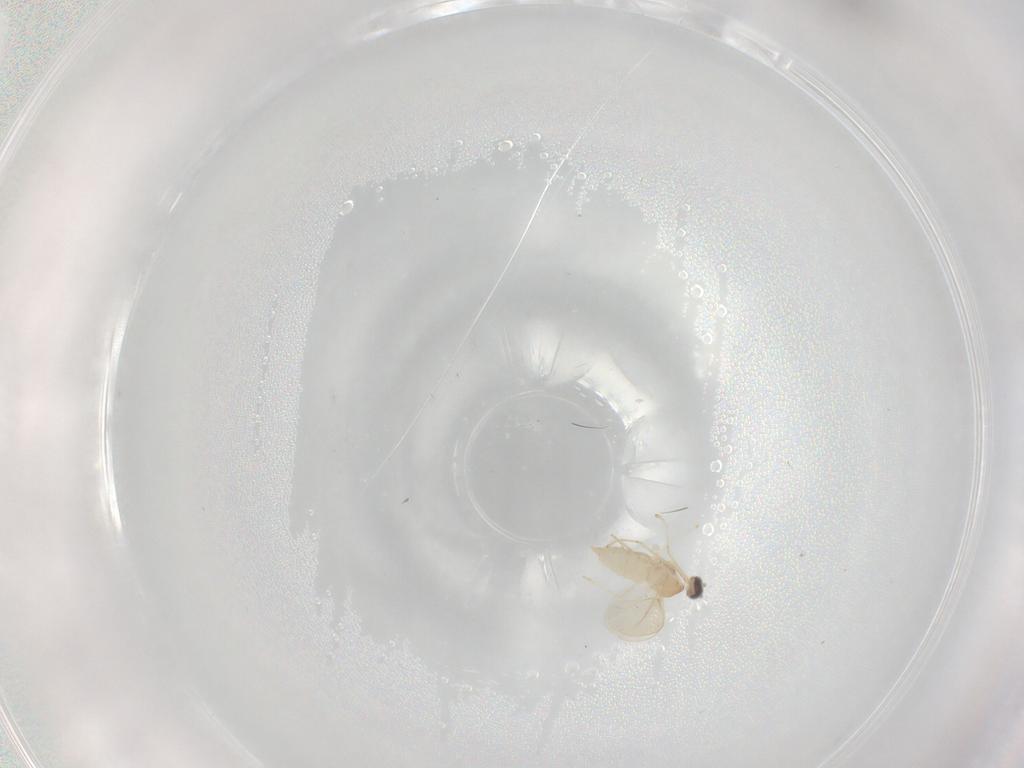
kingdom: Animalia
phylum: Arthropoda
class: Insecta
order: Diptera
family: Cecidomyiidae
